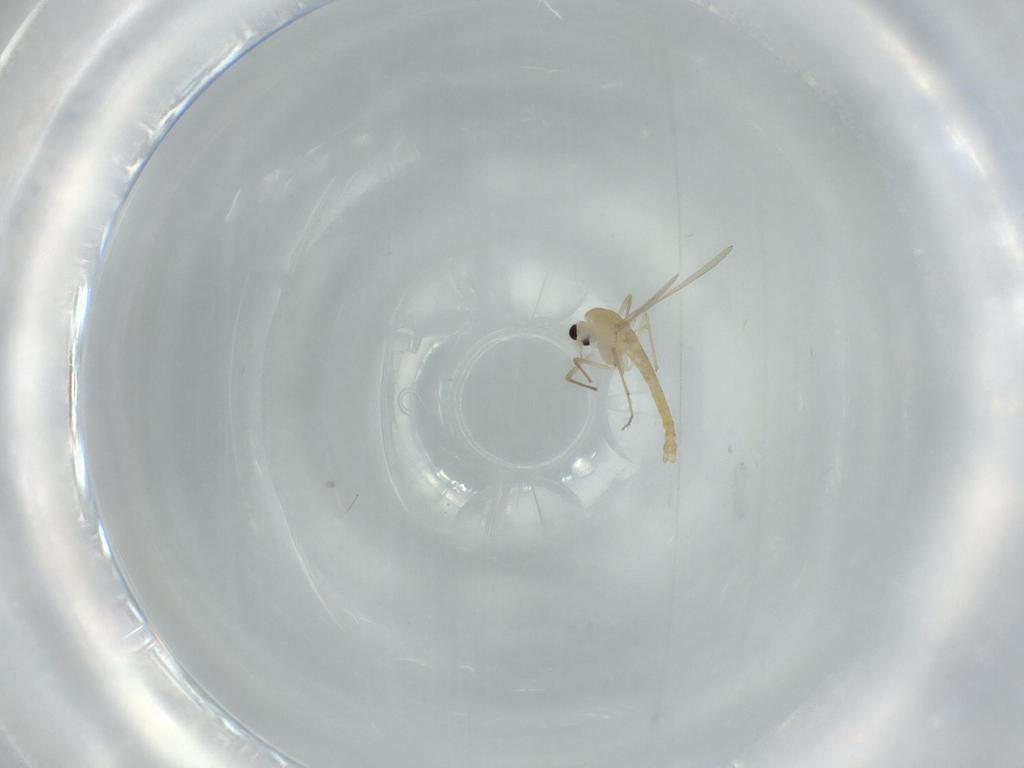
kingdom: Animalia
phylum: Arthropoda
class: Insecta
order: Diptera
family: Chironomidae
